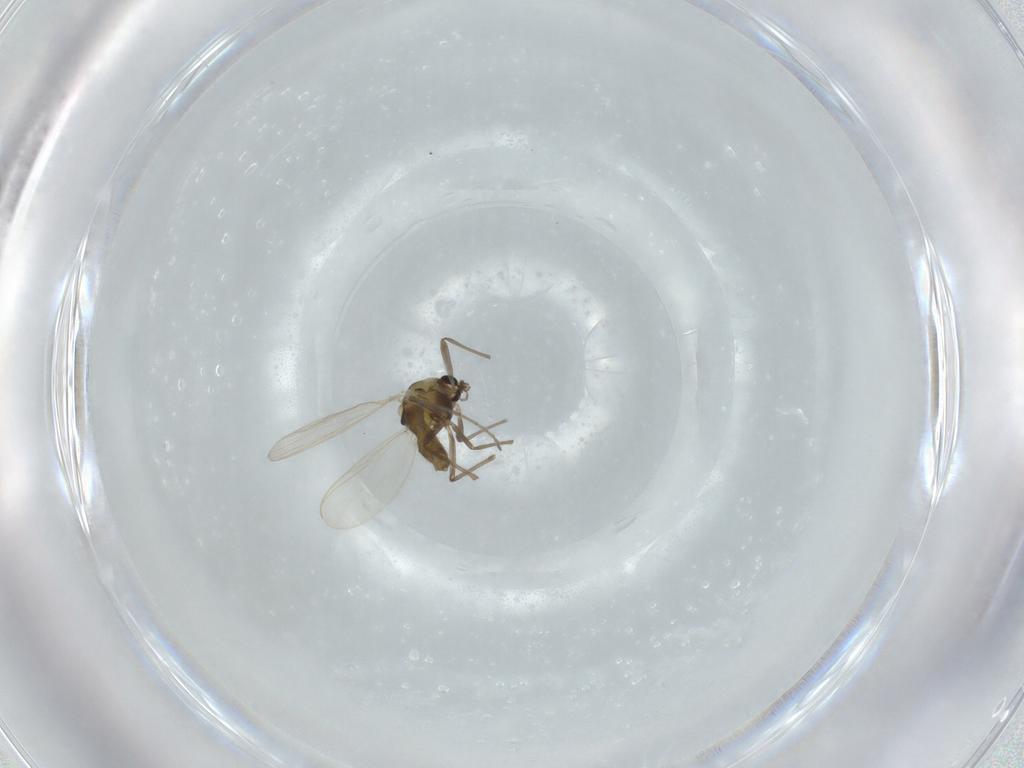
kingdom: Animalia
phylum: Arthropoda
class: Insecta
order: Diptera
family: Chironomidae
